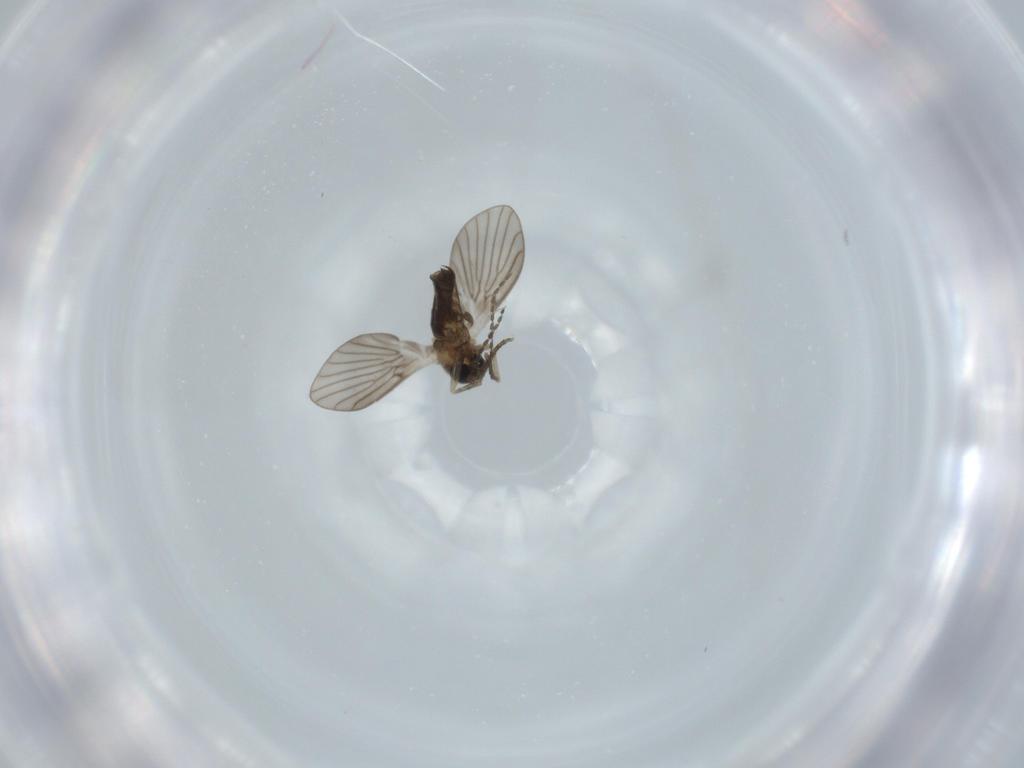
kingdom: Animalia
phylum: Arthropoda
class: Insecta
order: Diptera
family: Psychodidae
